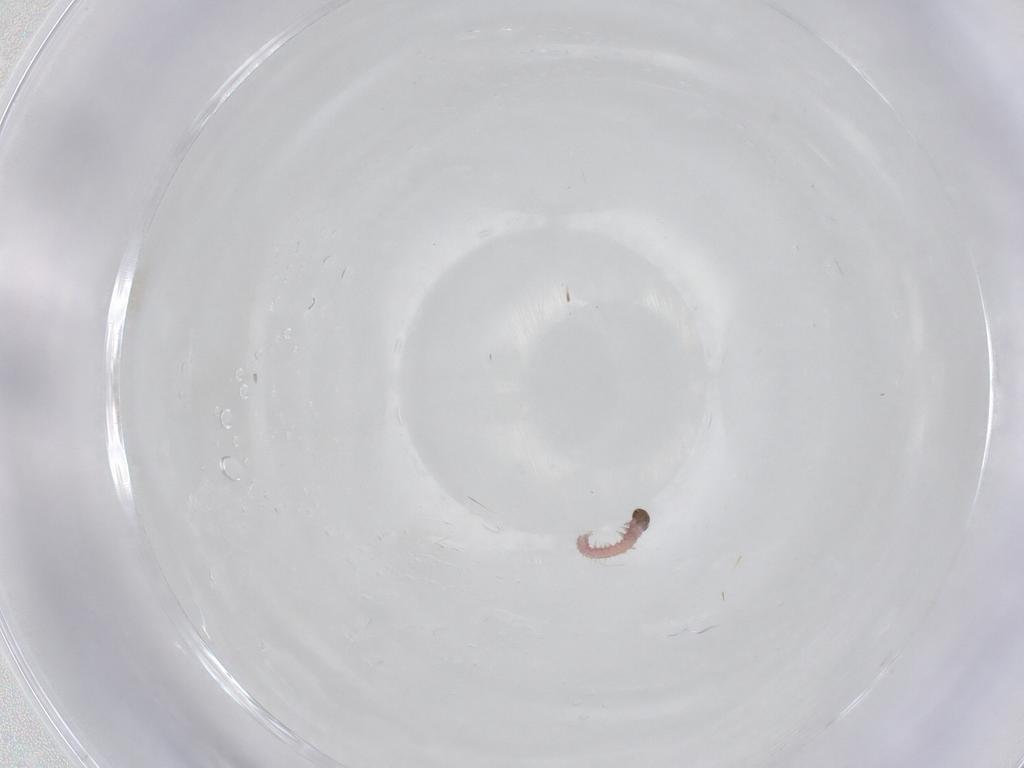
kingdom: Animalia
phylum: Arthropoda
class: Insecta
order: Lepidoptera
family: Lecithoceridae
